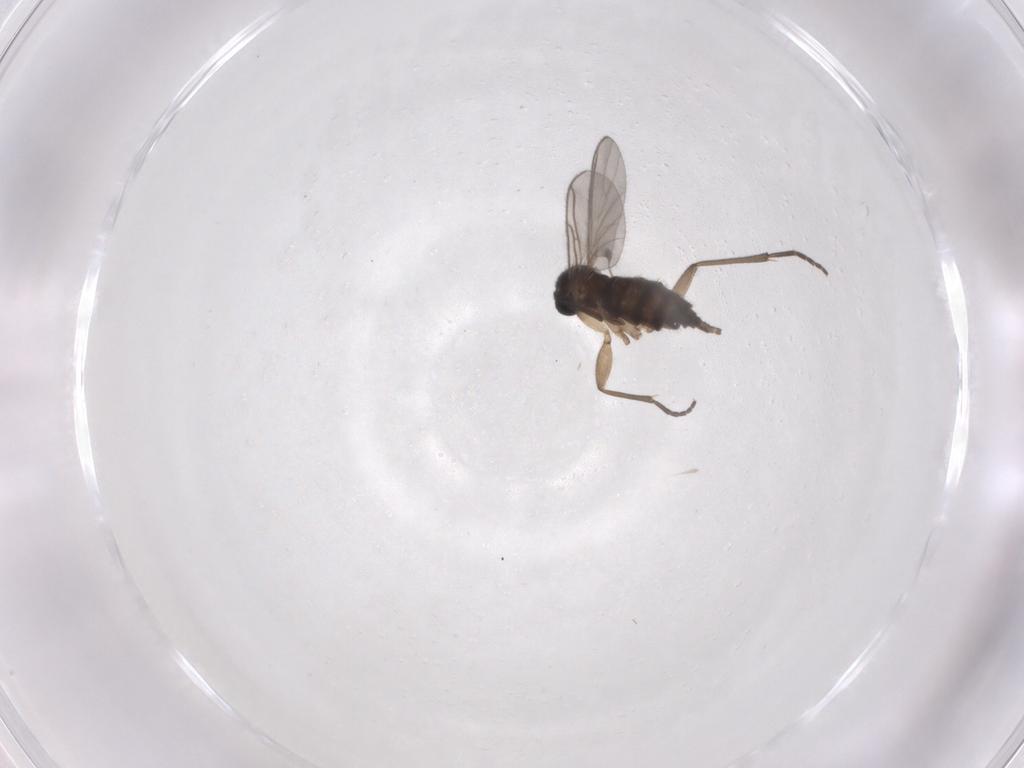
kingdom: Animalia
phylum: Arthropoda
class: Insecta
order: Diptera
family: Sciaridae
